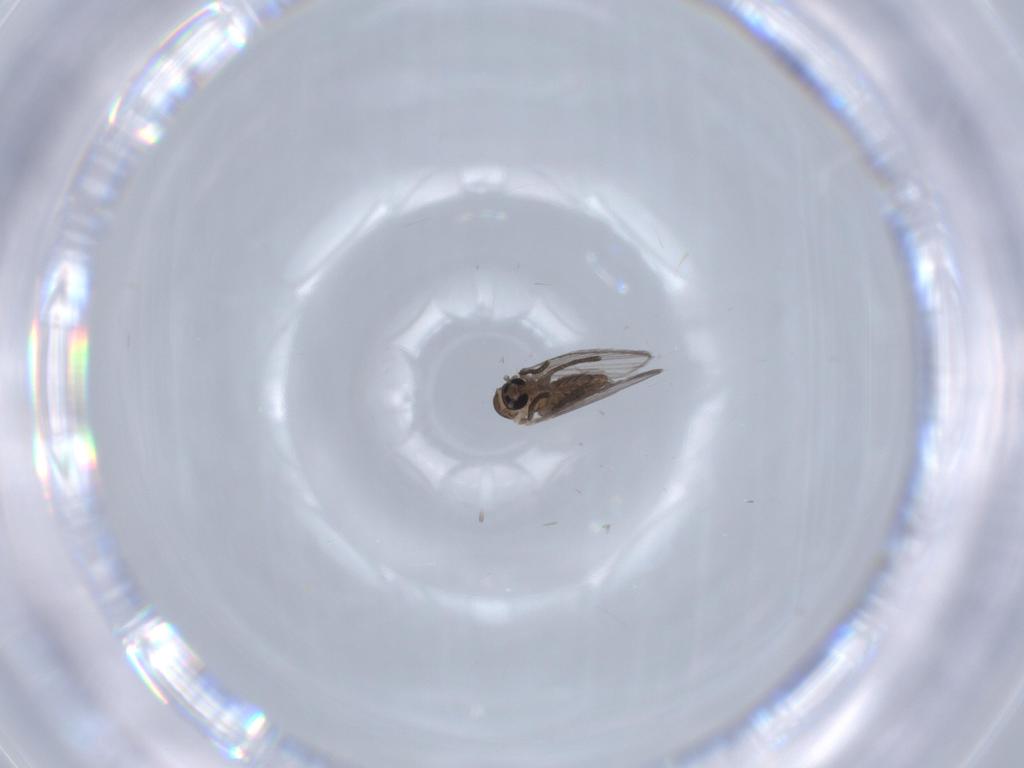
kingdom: Animalia
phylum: Arthropoda
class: Insecta
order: Diptera
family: Psychodidae
